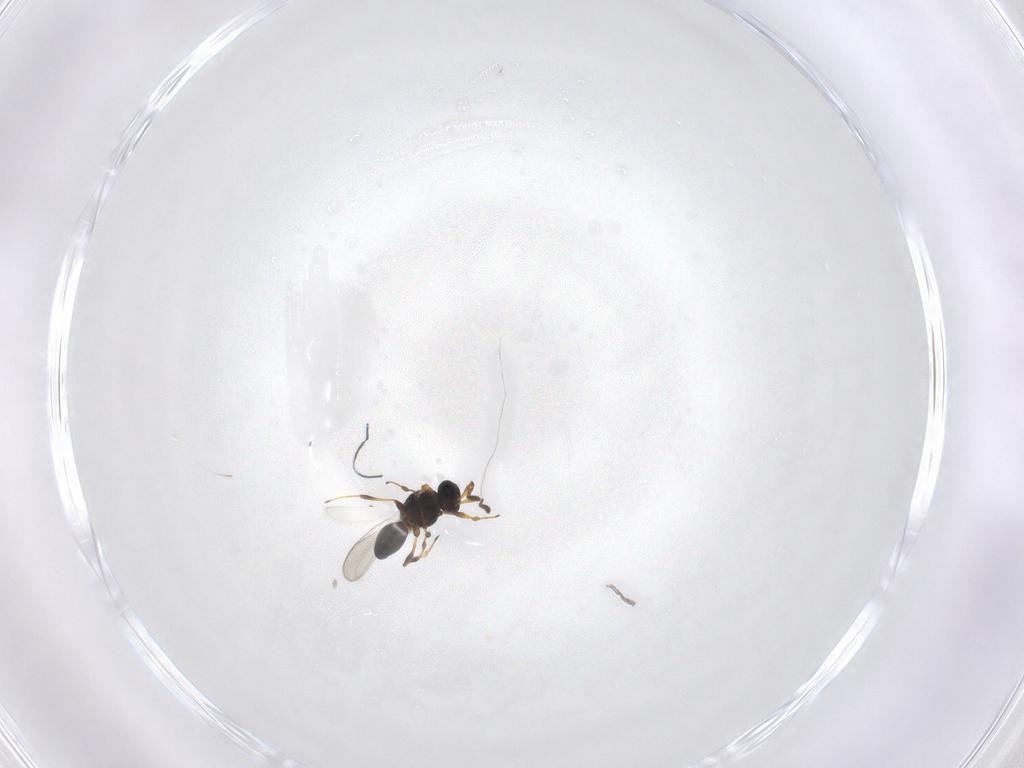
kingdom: Animalia
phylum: Arthropoda
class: Insecta
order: Hymenoptera
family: Platygastridae
